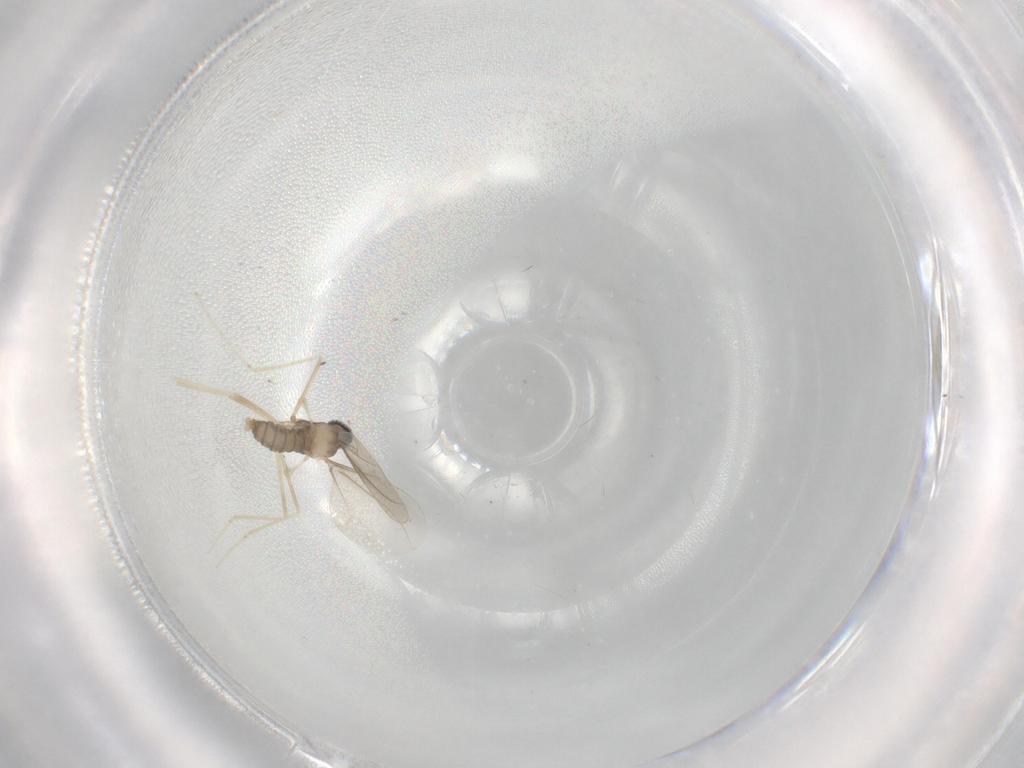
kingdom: Animalia
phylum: Arthropoda
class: Insecta
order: Diptera
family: Cecidomyiidae
